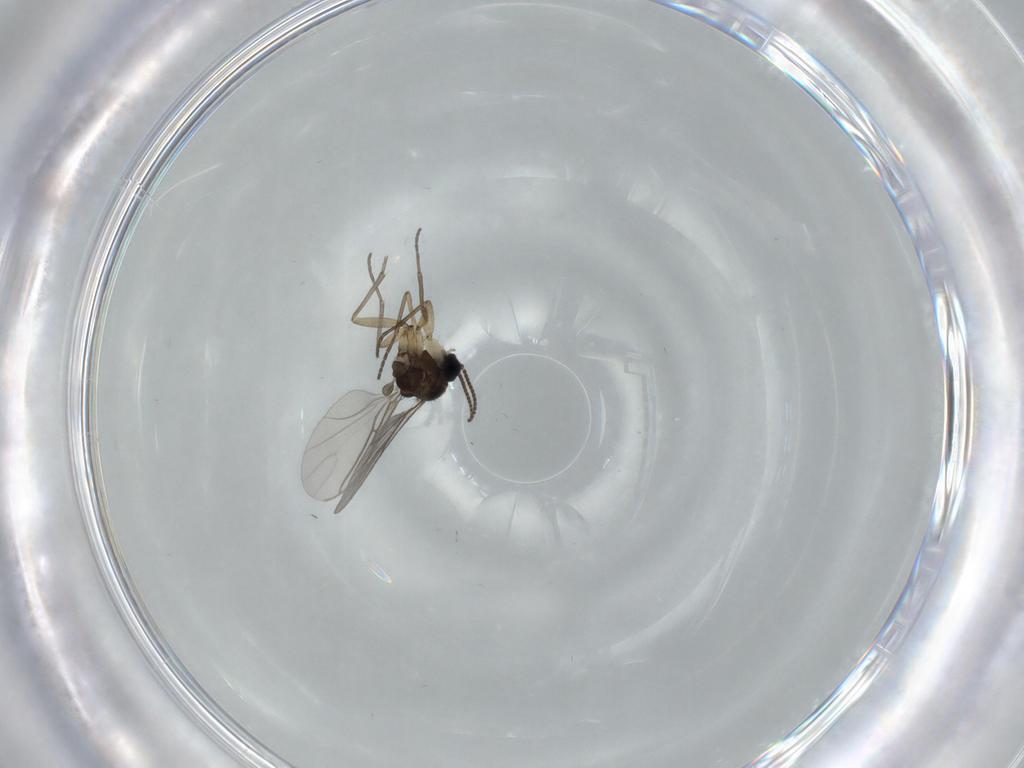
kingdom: Animalia
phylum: Arthropoda
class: Insecta
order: Diptera
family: Sciaridae
